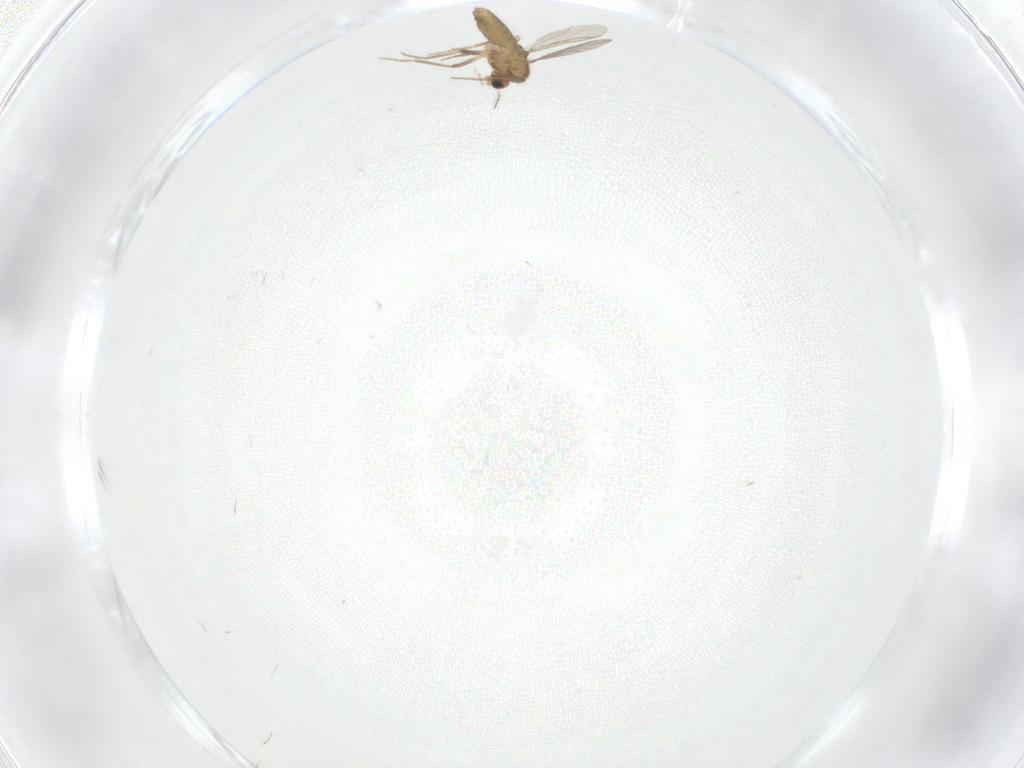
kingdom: Animalia
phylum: Arthropoda
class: Insecta
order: Diptera
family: Chironomidae
